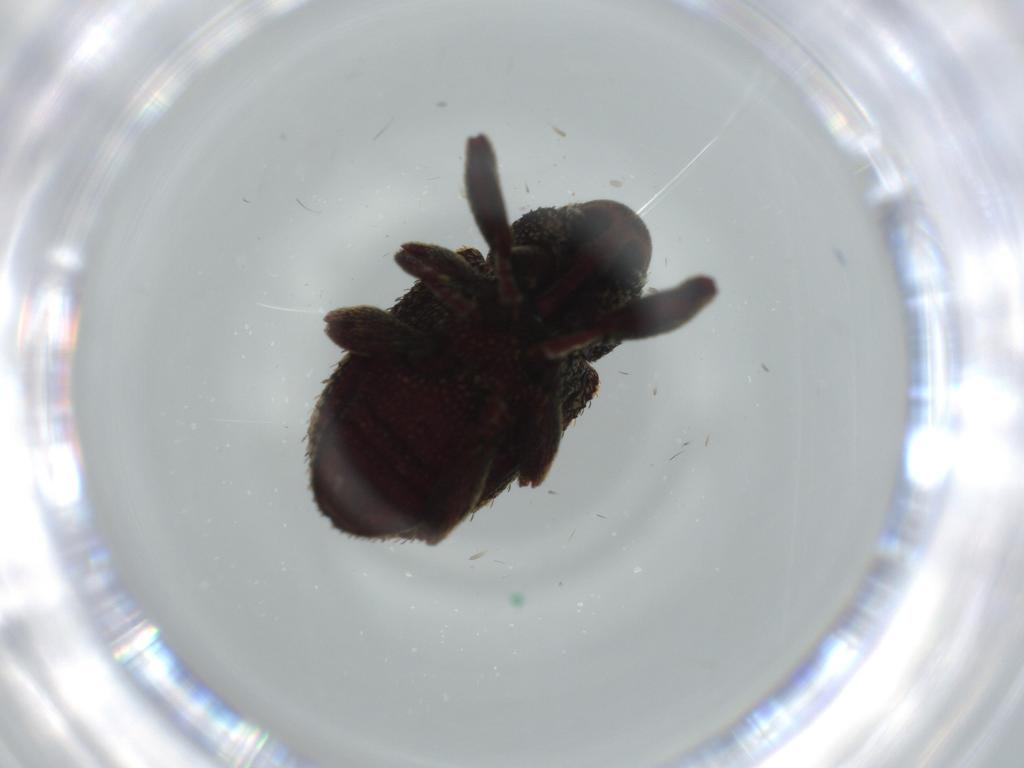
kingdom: Animalia
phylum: Arthropoda
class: Insecta
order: Coleoptera
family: Curculionidae
